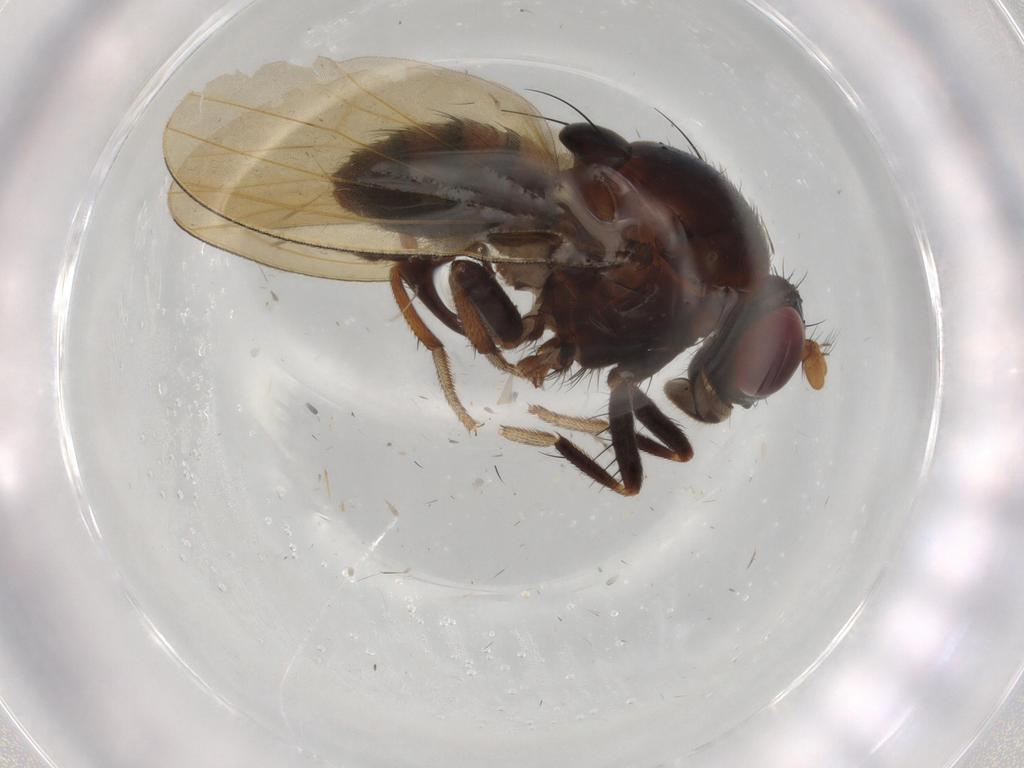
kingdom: Animalia
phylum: Arthropoda
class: Insecta
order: Diptera
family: Lauxaniidae
